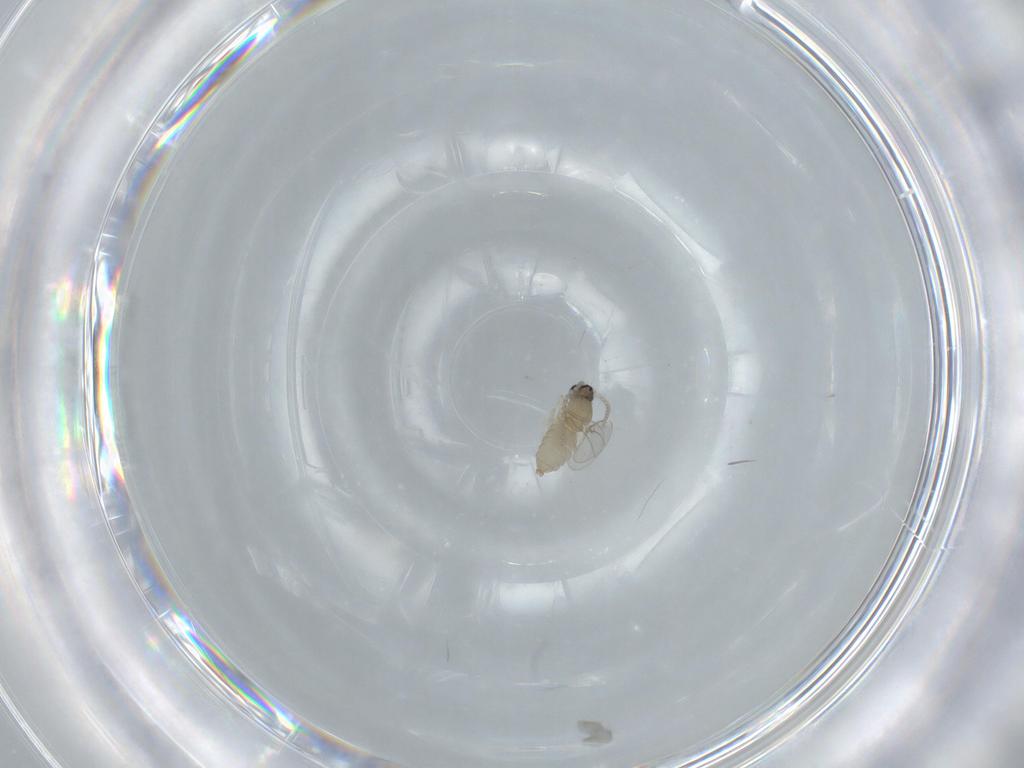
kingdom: Animalia
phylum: Arthropoda
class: Insecta
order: Diptera
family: Cecidomyiidae
